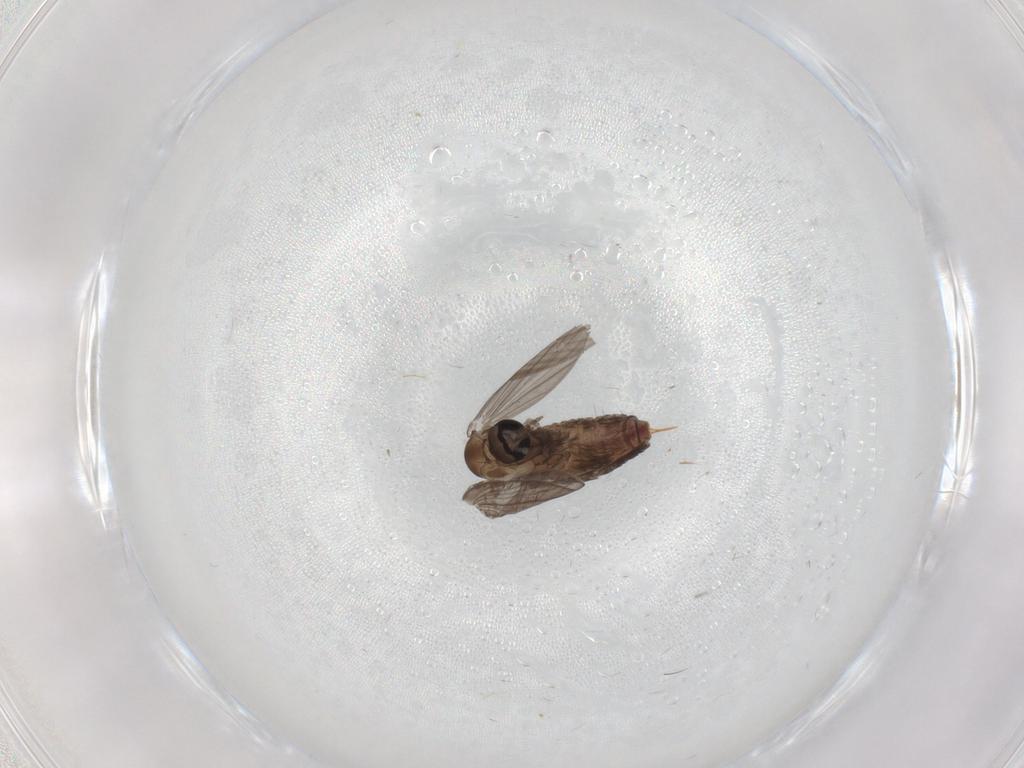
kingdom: Animalia
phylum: Arthropoda
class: Insecta
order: Diptera
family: Psychodidae
